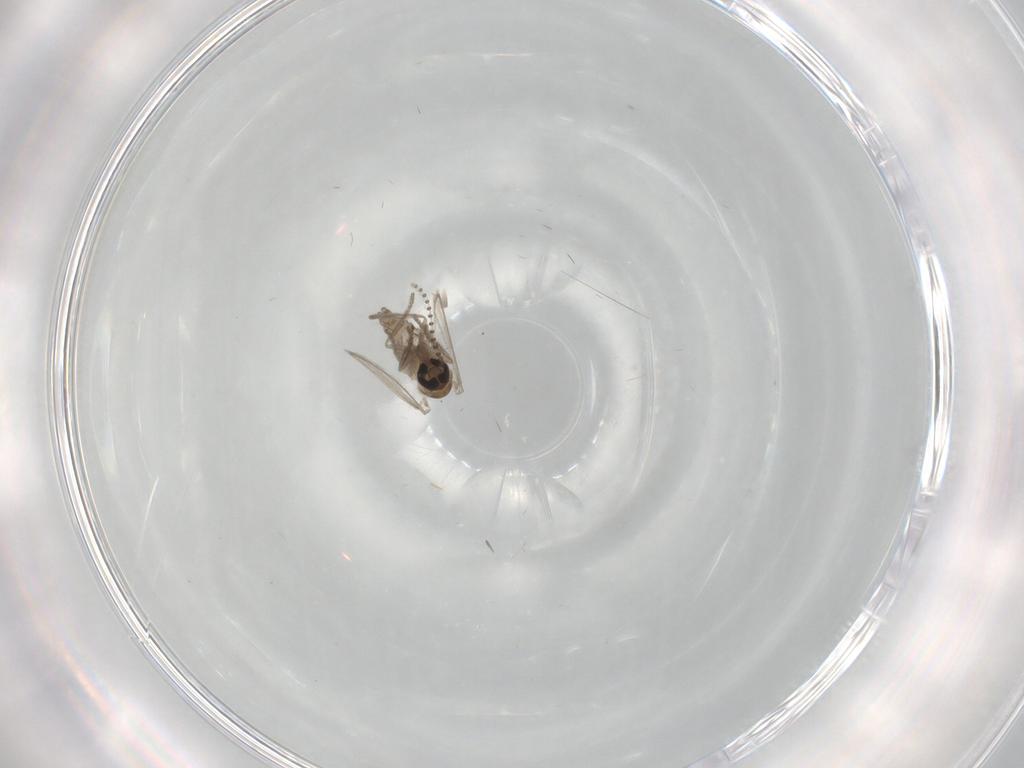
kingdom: Animalia
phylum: Arthropoda
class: Insecta
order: Diptera
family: Psychodidae
